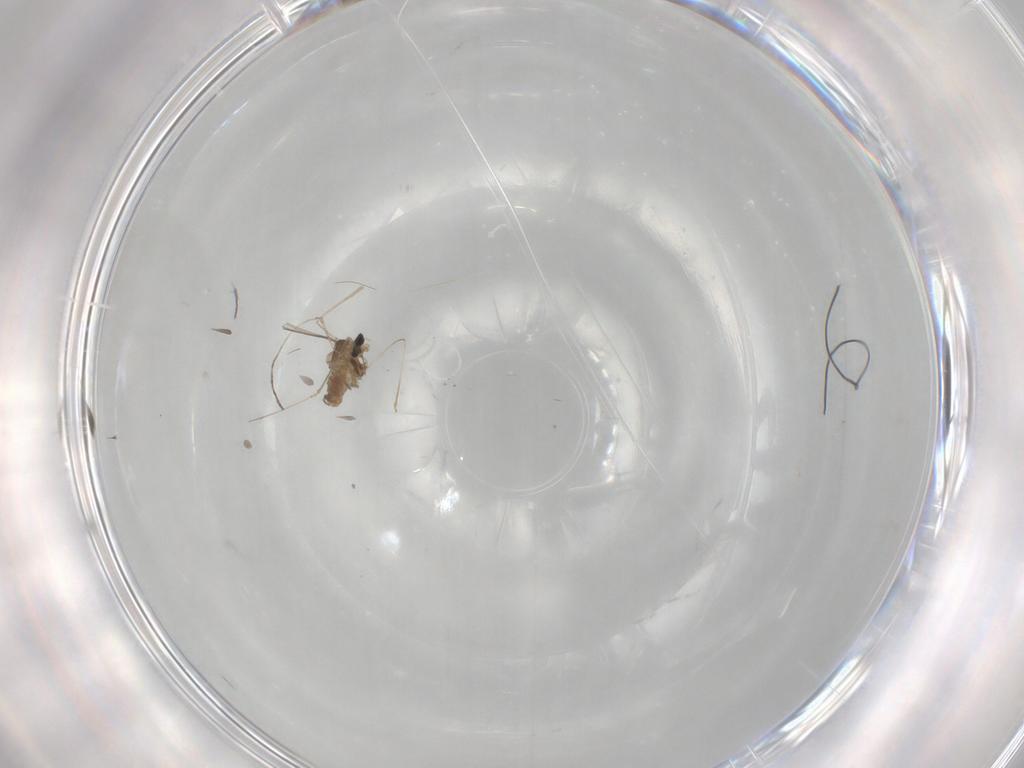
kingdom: Animalia
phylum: Arthropoda
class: Insecta
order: Diptera
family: Cecidomyiidae
